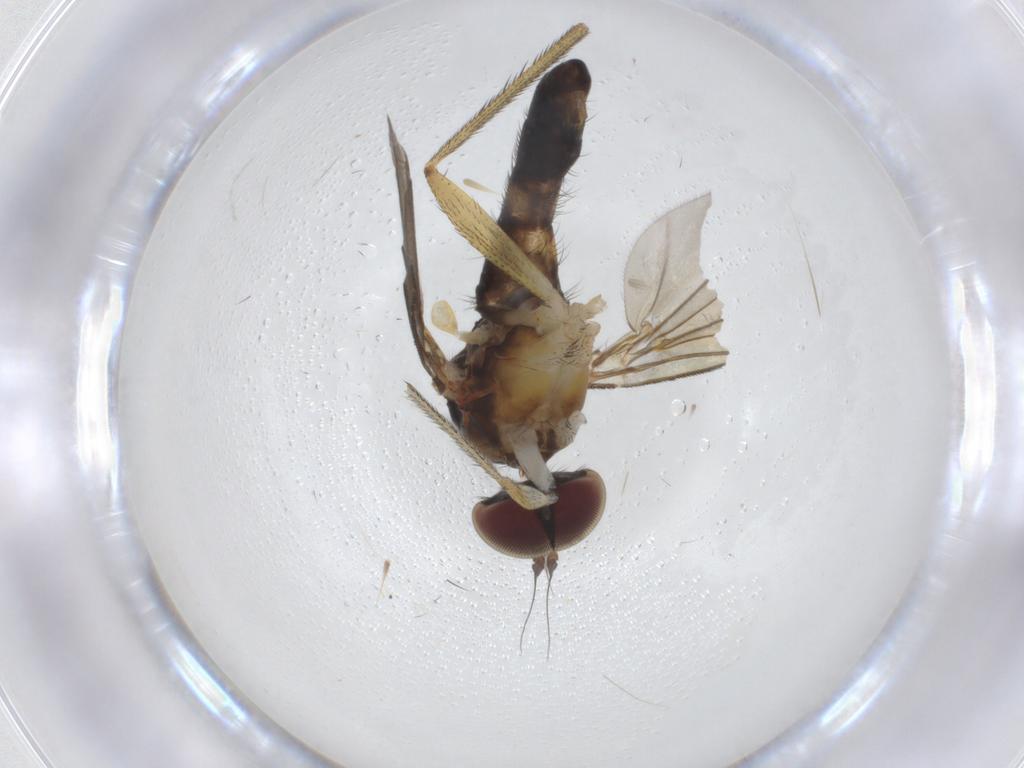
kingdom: Animalia
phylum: Arthropoda
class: Insecta
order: Diptera
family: Dolichopodidae
